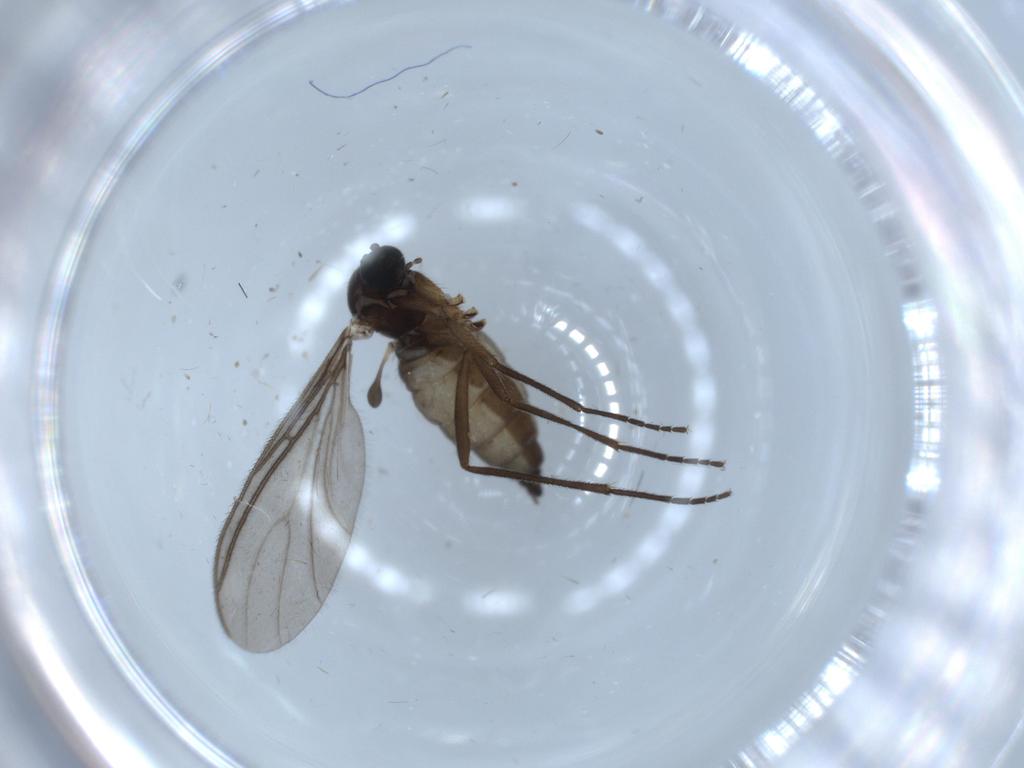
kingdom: Animalia
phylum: Arthropoda
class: Insecta
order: Diptera
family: Sciaridae
